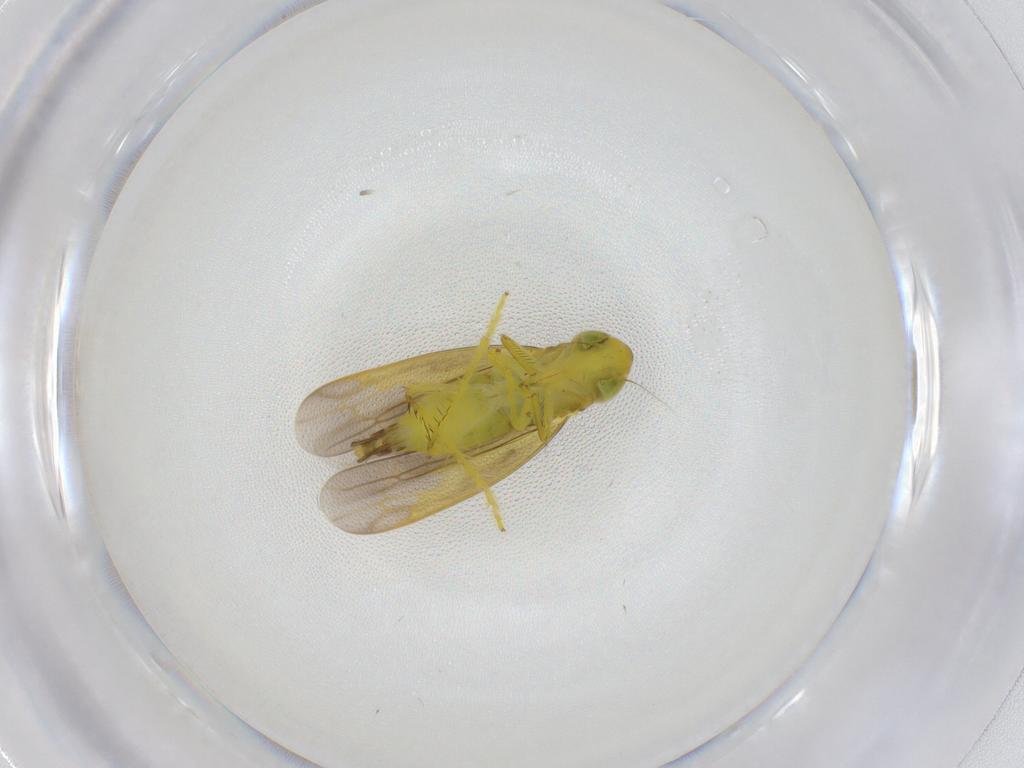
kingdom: Animalia
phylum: Arthropoda
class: Insecta
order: Hemiptera
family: Cicadellidae
